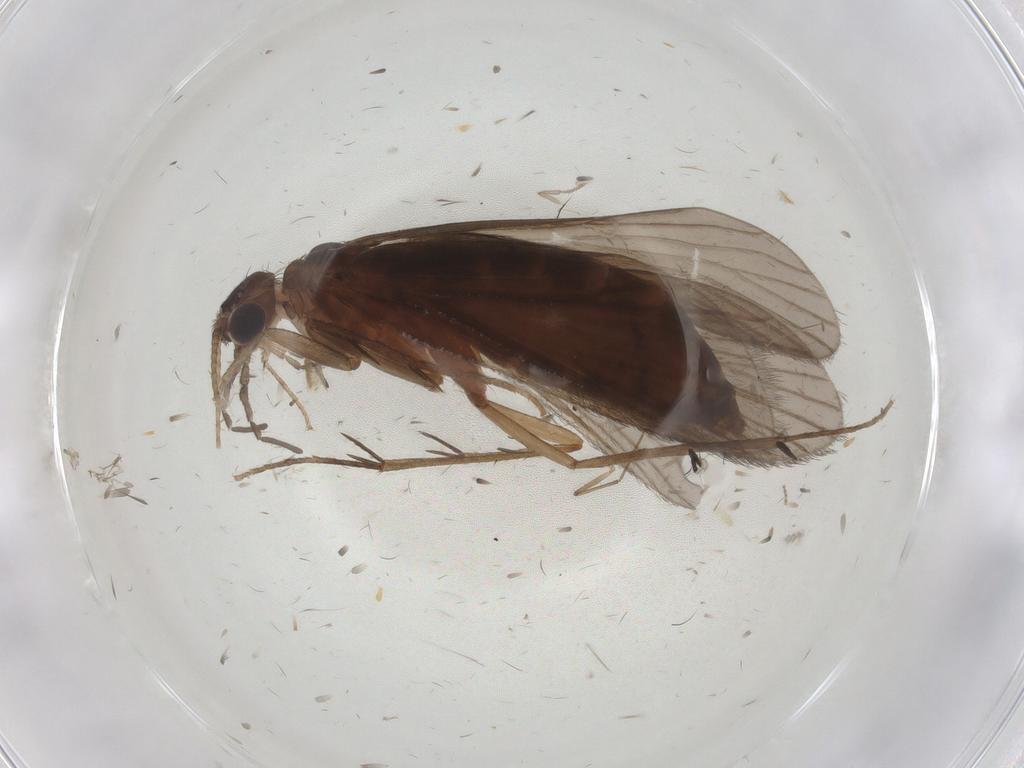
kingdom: Animalia
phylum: Arthropoda
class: Insecta
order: Trichoptera
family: Philopotamidae
